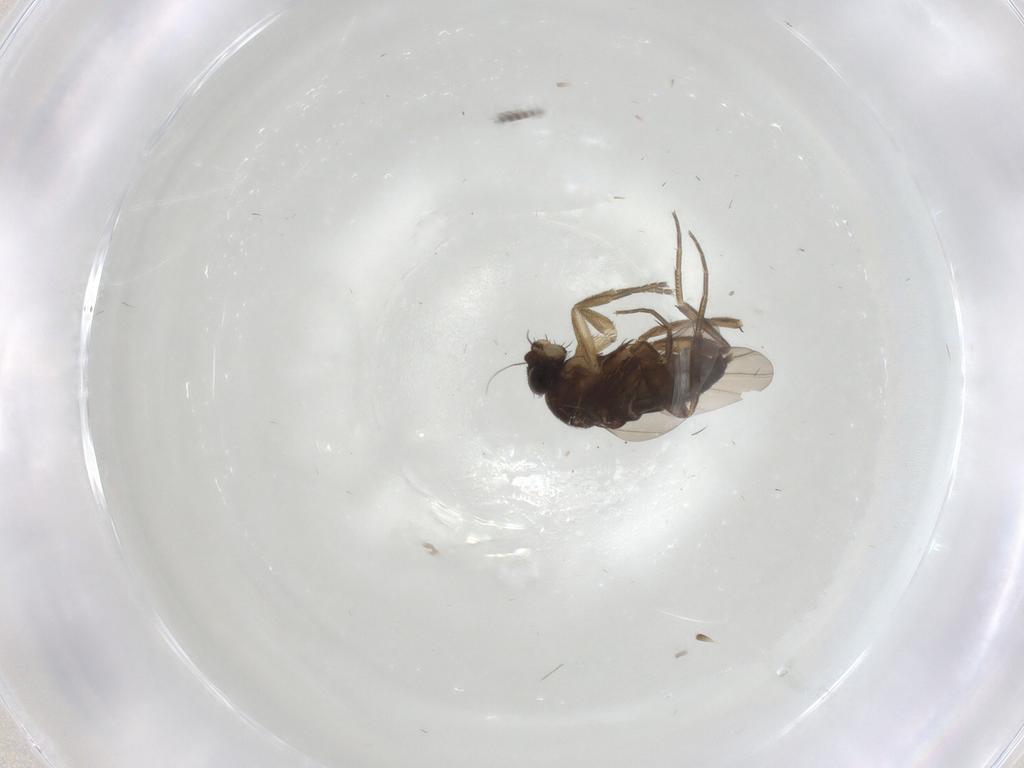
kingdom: Animalia
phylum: Arthropoda
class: Insecta
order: Diptera
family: Phoridae
